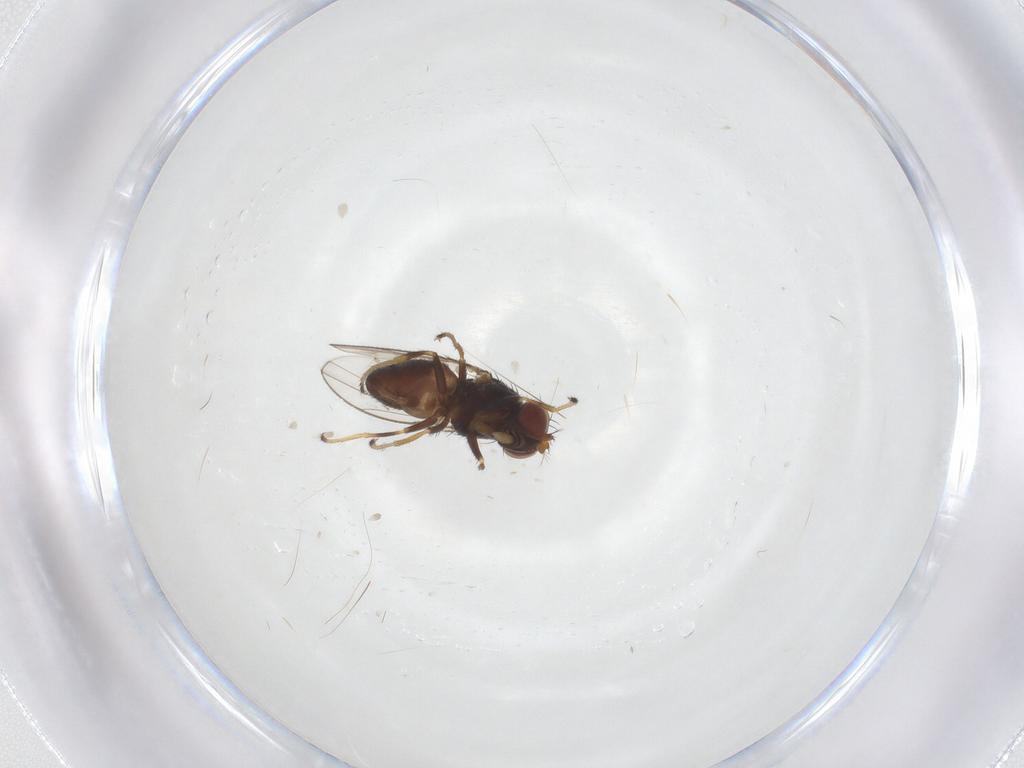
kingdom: Animalia
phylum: Arthropoda
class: Insecta
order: Diptera
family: Ephydridae
